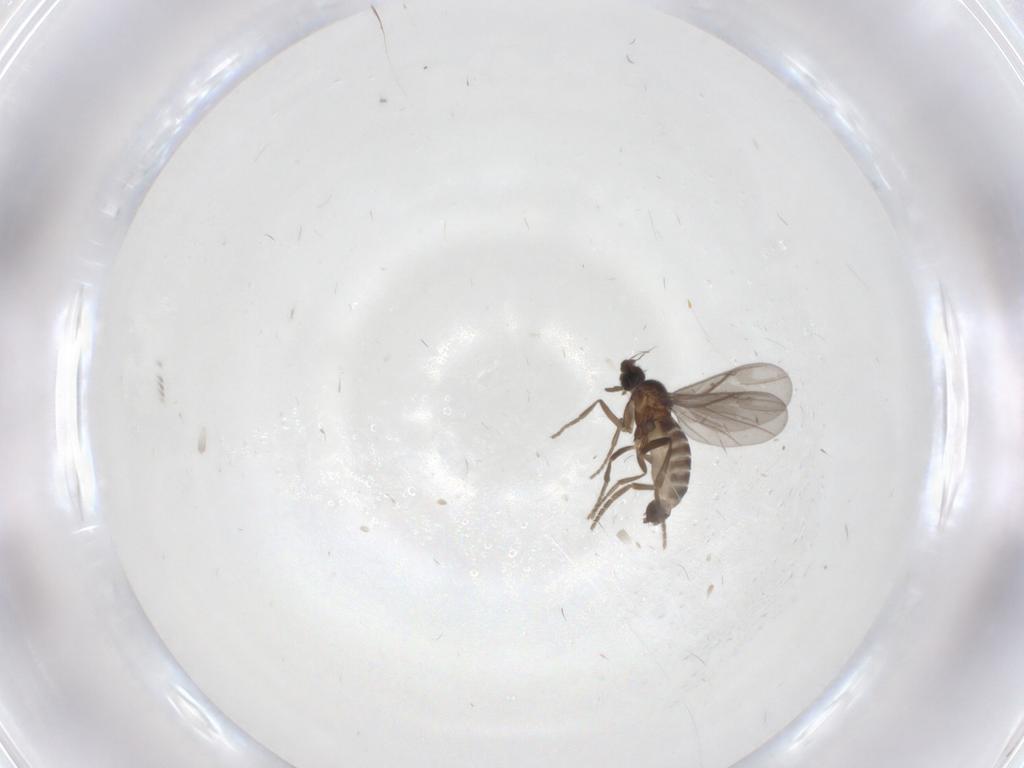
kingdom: Animalia
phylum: Arthropoda
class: Insecta
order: Diptera
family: Phoridae
